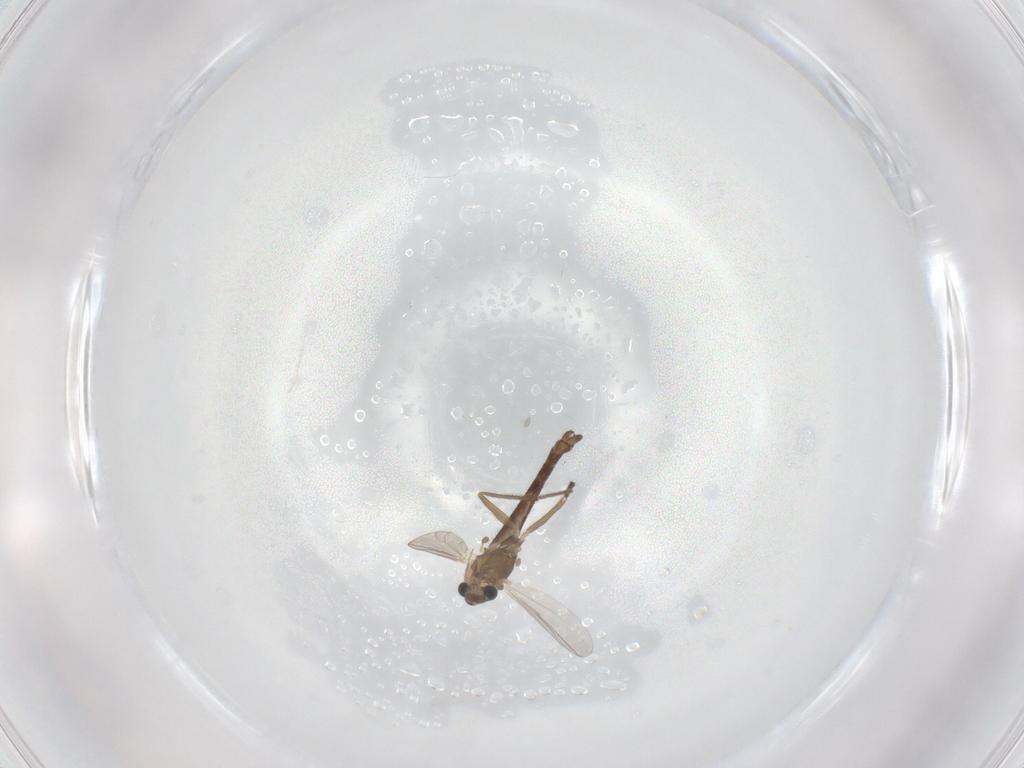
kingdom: Animalia
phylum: Arthropoda
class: Insecta
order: Diptera
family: Chironomidae
